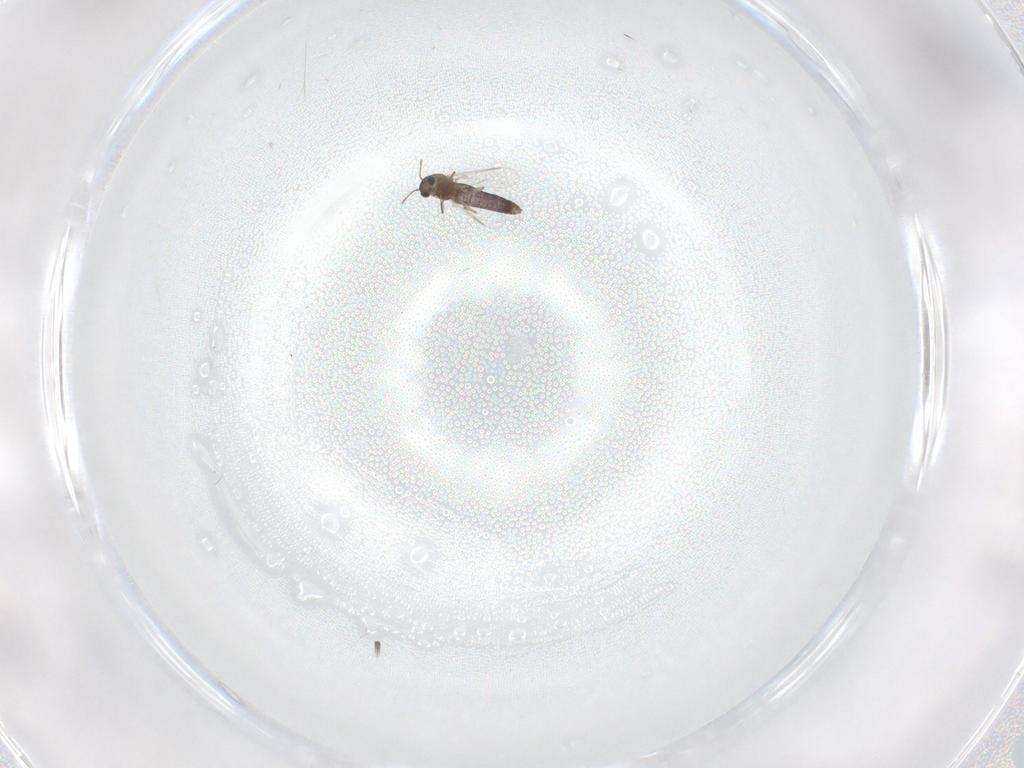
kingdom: Animalia
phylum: Arthropoda
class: Insecta
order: Diptera
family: Chironomidae
